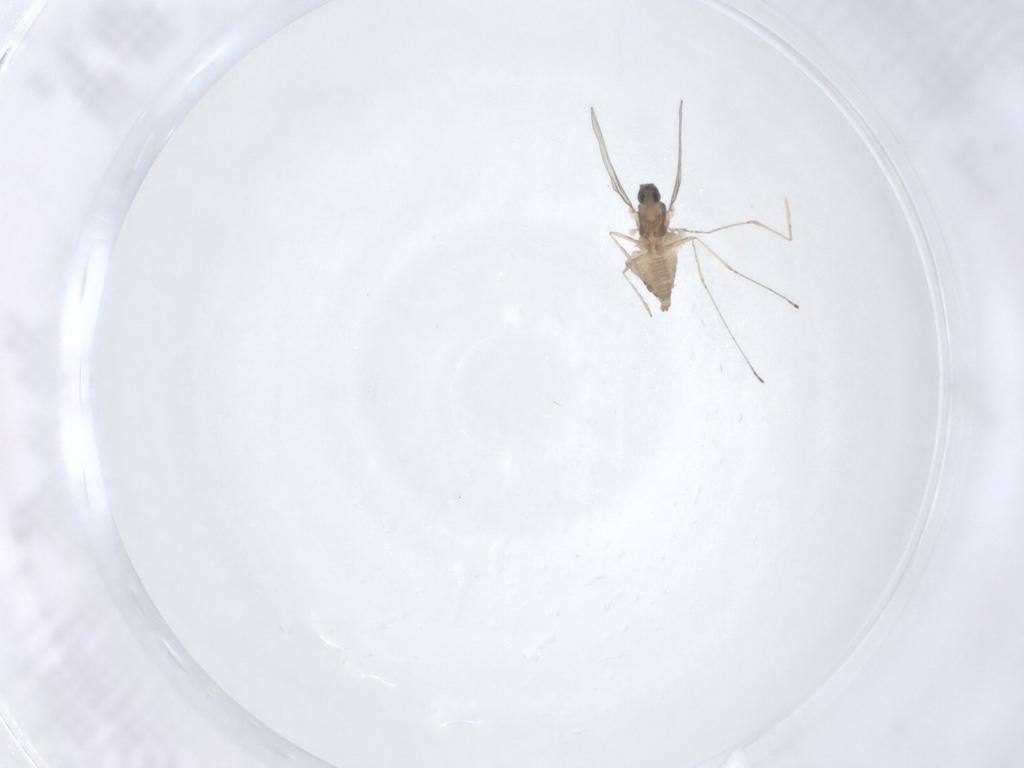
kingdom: Animalia
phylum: Arthropoda
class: Insecta
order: Diptera
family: Cecidomyiidae
